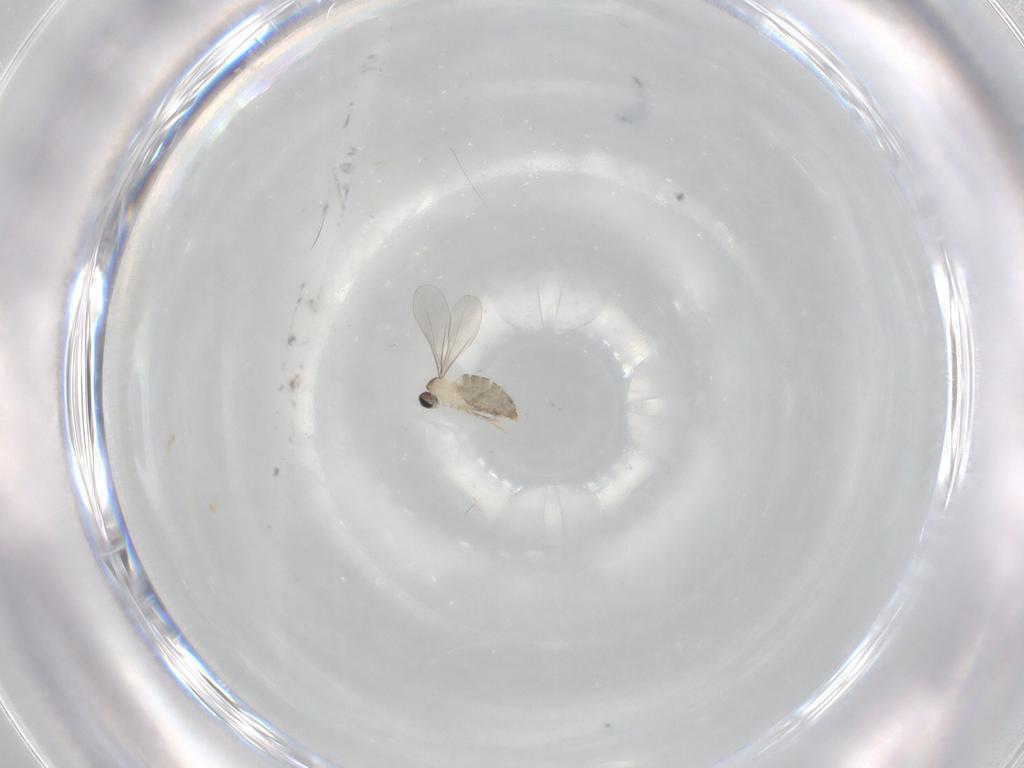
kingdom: Animalia
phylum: Arthropoda
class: Insecta
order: Diptera
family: Cecidomyiidae
